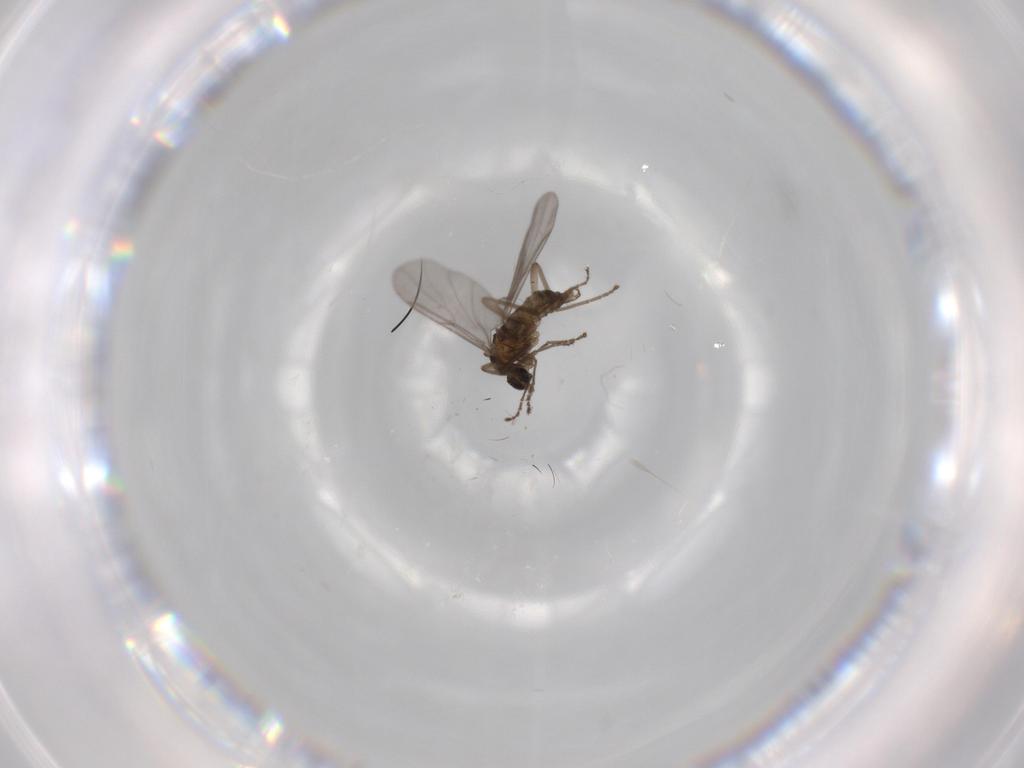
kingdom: Animalia
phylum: Arthropoda
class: Insecta
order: Diptera
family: Cecidomyiidae
